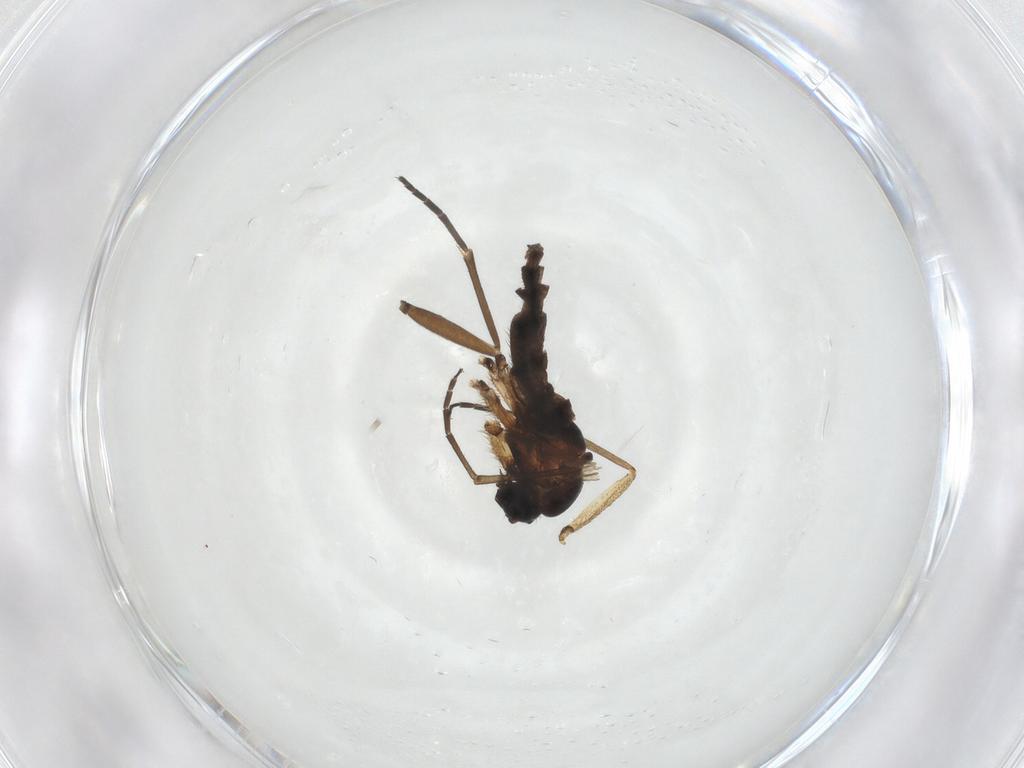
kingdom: Animalia
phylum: Arthropoda
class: Insecta
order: Diptera
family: Sciaridae
